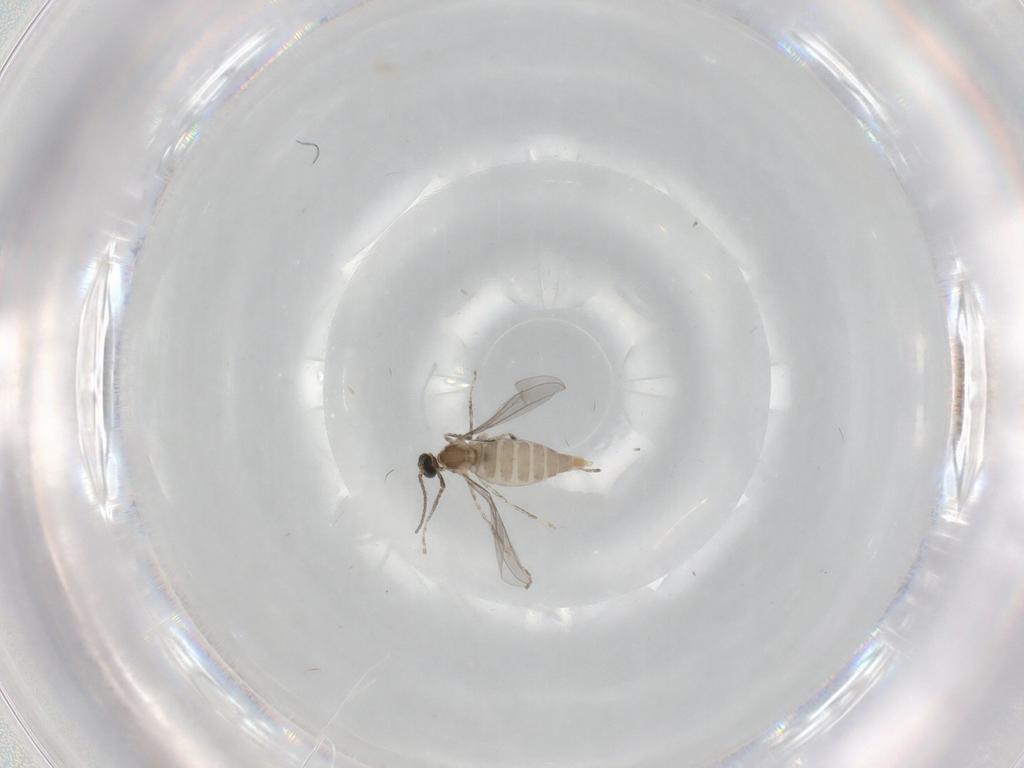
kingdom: Animalia
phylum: Arthropoda
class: Insecta
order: Diptera
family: Cecidomyiidae
